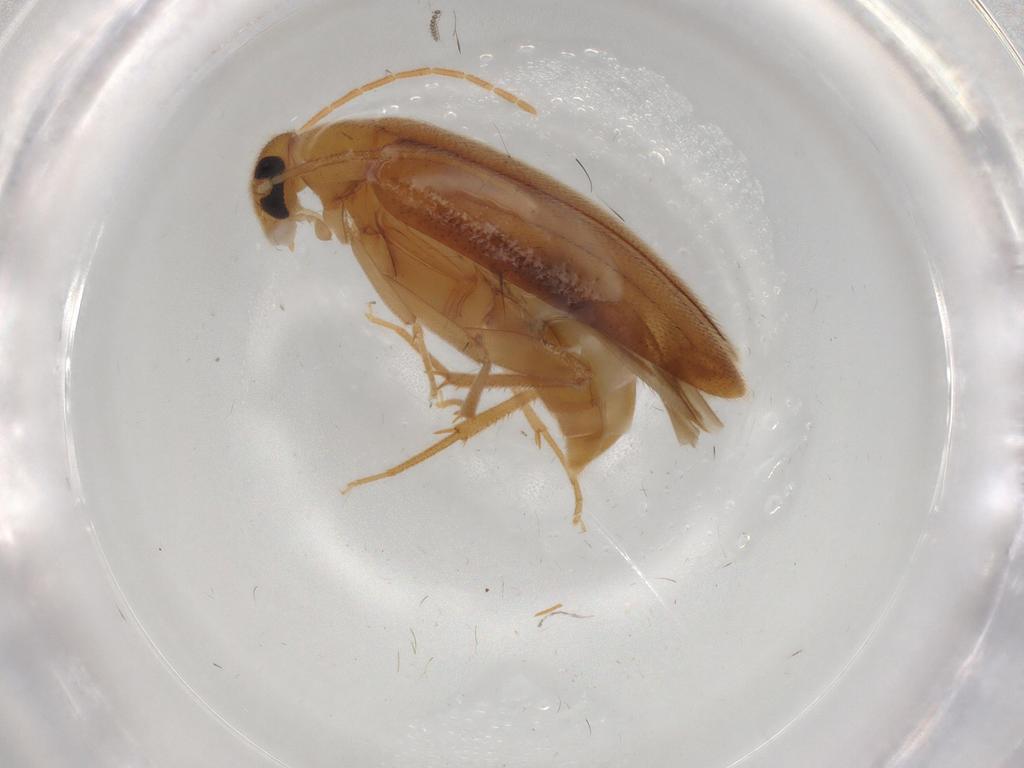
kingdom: Animalia
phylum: Arthropoda
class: Insecta
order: Coleoptera
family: Scraptiidae
